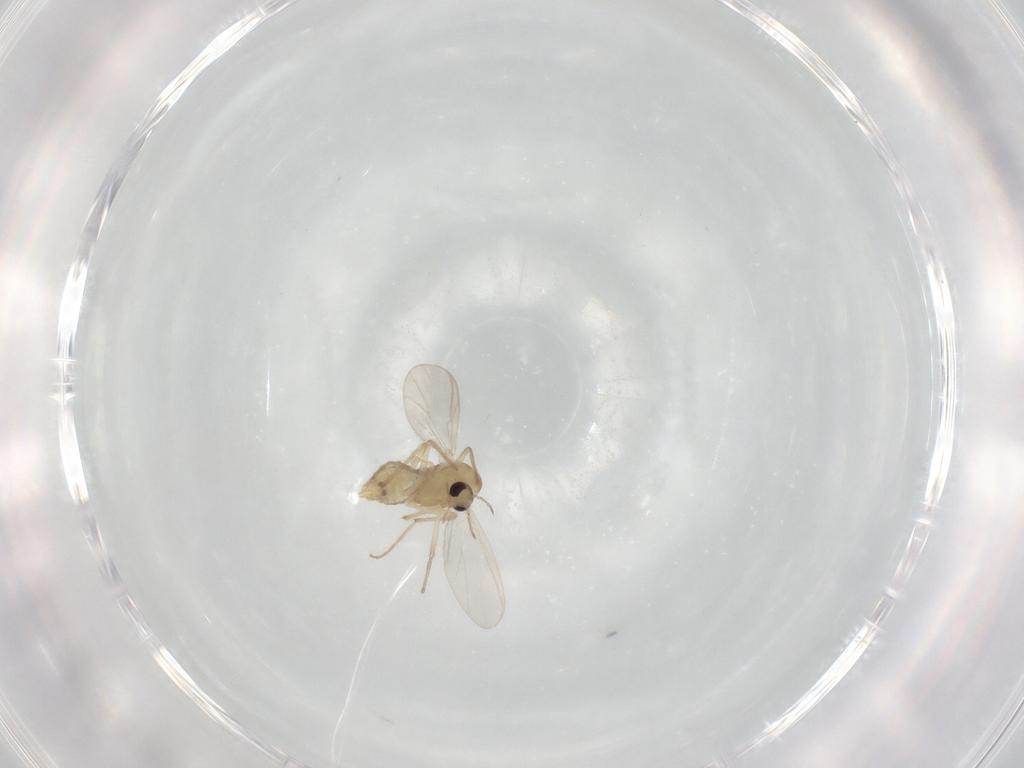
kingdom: Animalia
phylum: Arthropoda
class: Insecta
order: Diptera
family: Chironomidae
